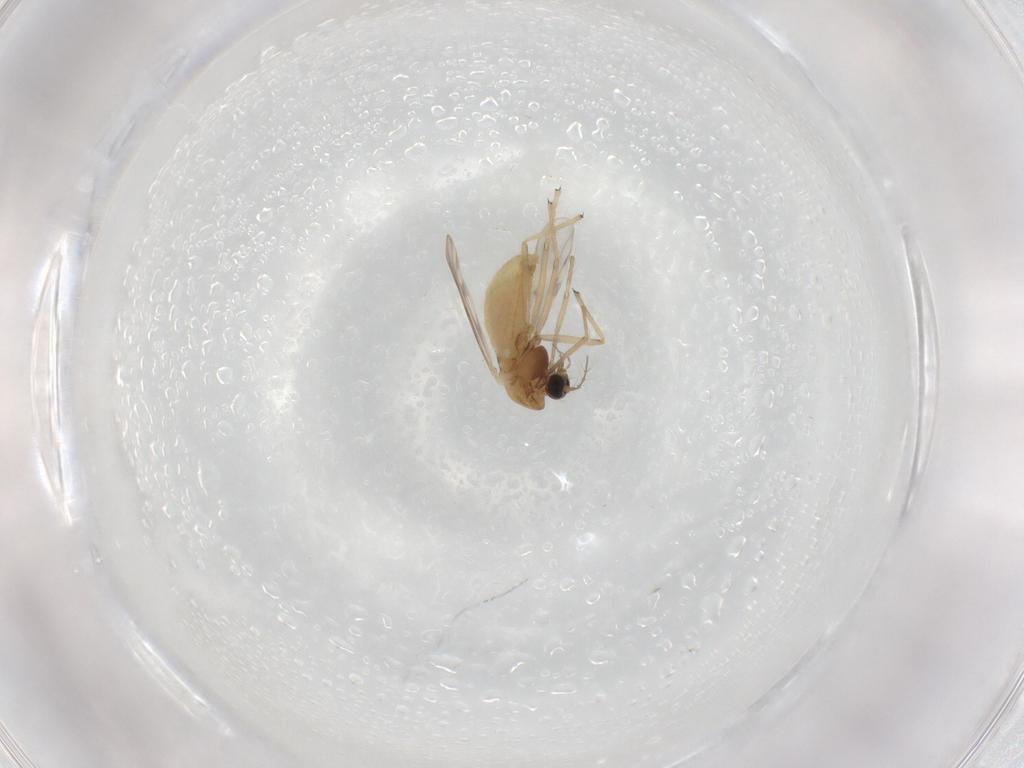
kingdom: Animalia
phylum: Arthropoda
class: Insecta
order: Diptera
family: Chironomidae
